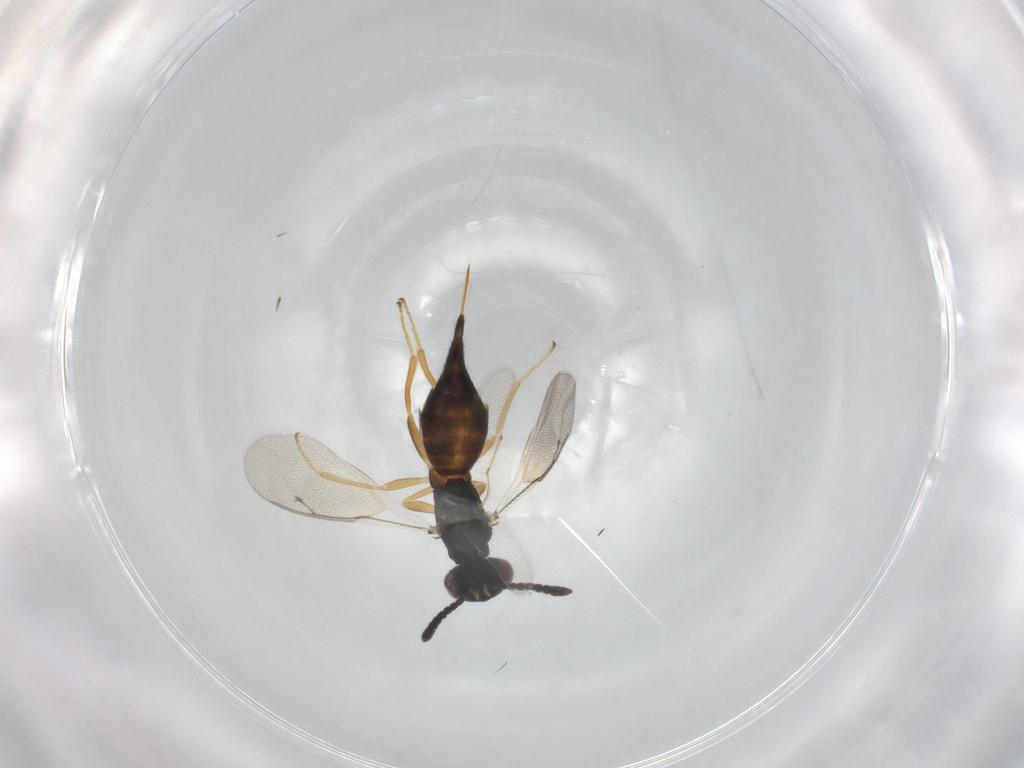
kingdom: Animalia
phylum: Arthropoda
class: Insecta
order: Hymenoptera
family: Pteromalidae
